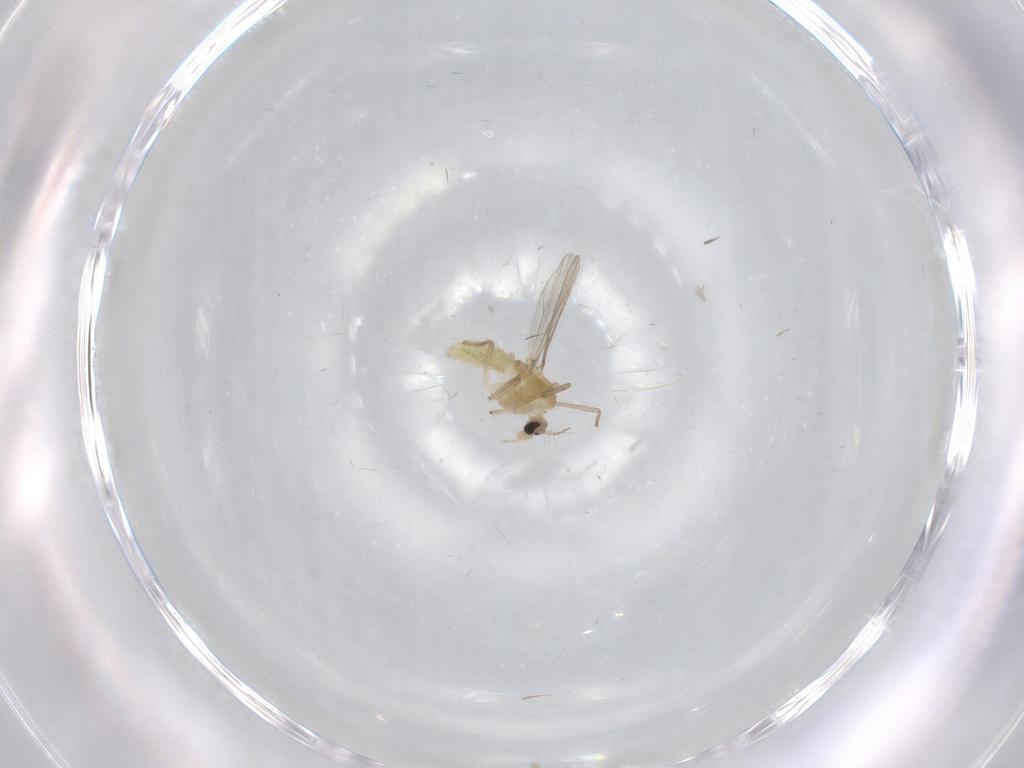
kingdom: Animalia
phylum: Arthropoda
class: Insecta
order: Diptera
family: Chironomidae
